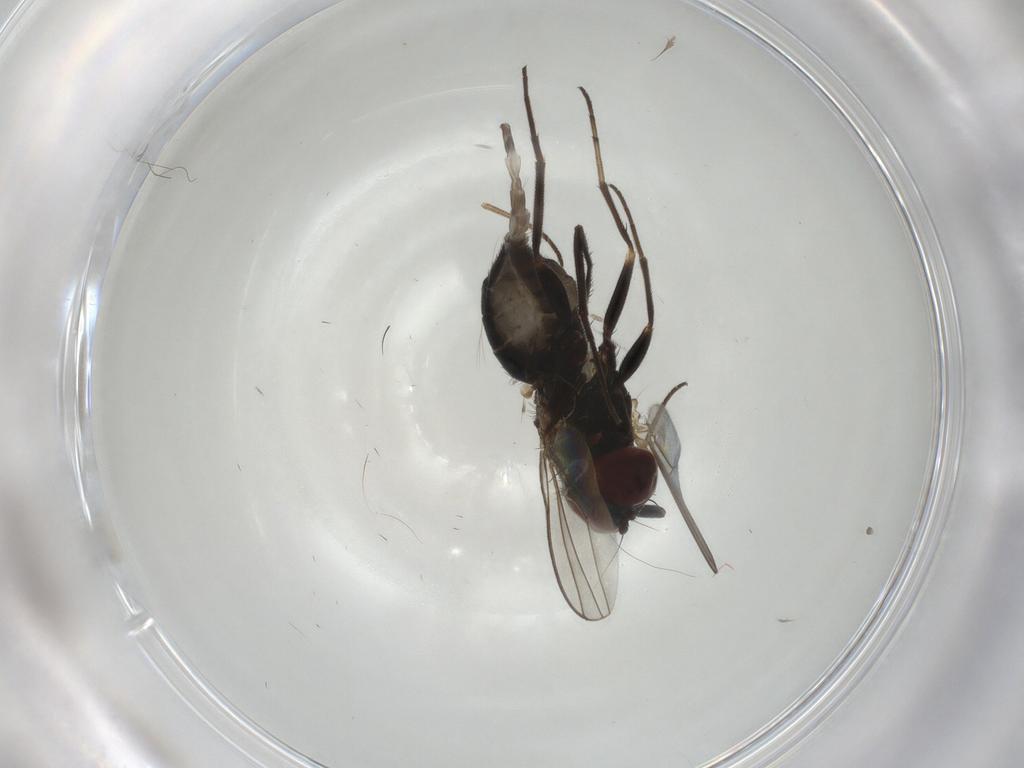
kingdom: Animalia
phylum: Arthropoda
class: Insecta
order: Diptera
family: Dolichopodidae
